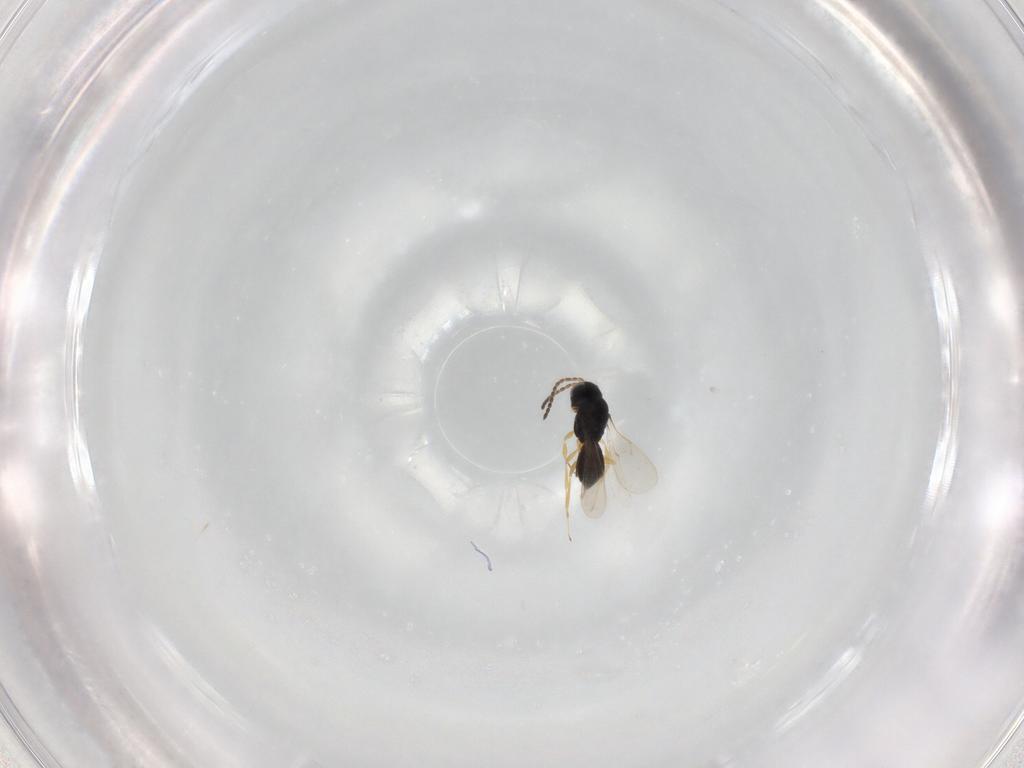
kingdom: Animalia
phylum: Arthropoda
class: Insecta
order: Hymenoptera
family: Scelionidae
